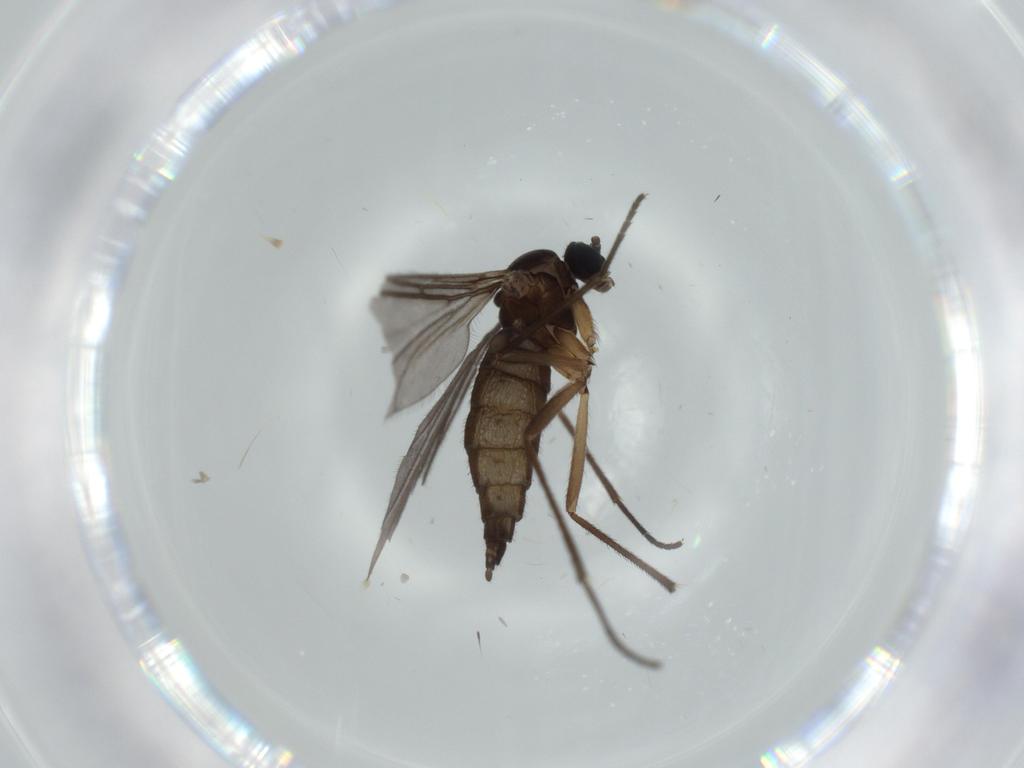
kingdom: Animalia
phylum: Arthropoda
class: Insecta
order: Diptera
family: Sciaridae
